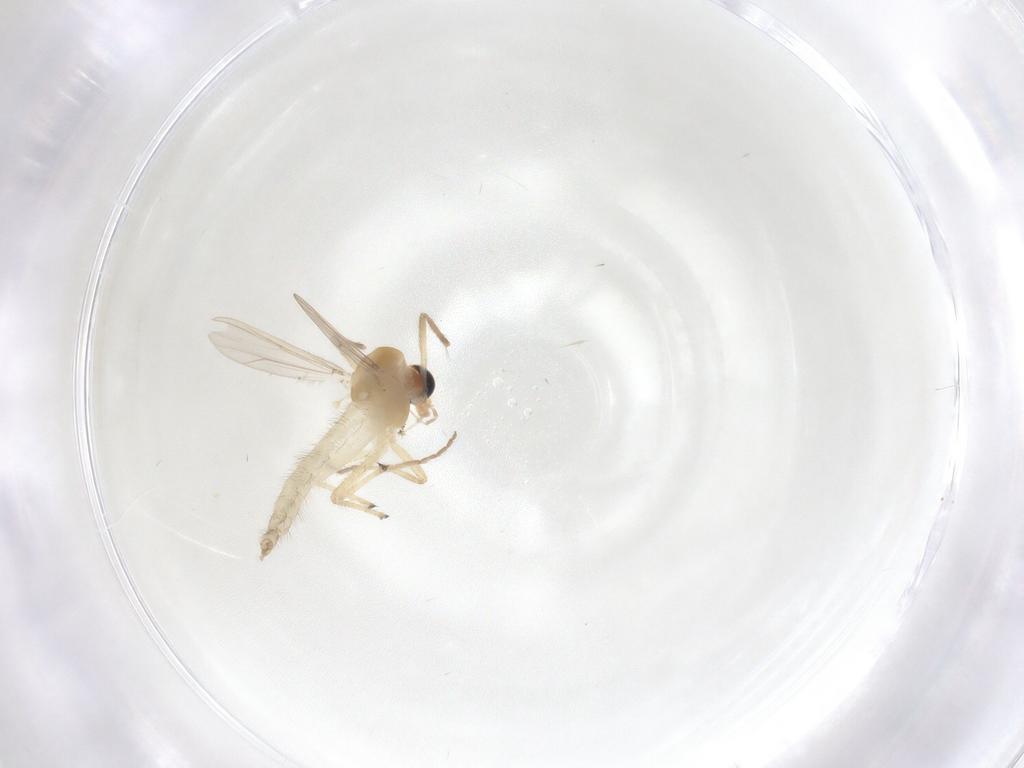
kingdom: Animalia
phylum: Arthropoda
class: Insecta
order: Diptera
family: Chironomidae
